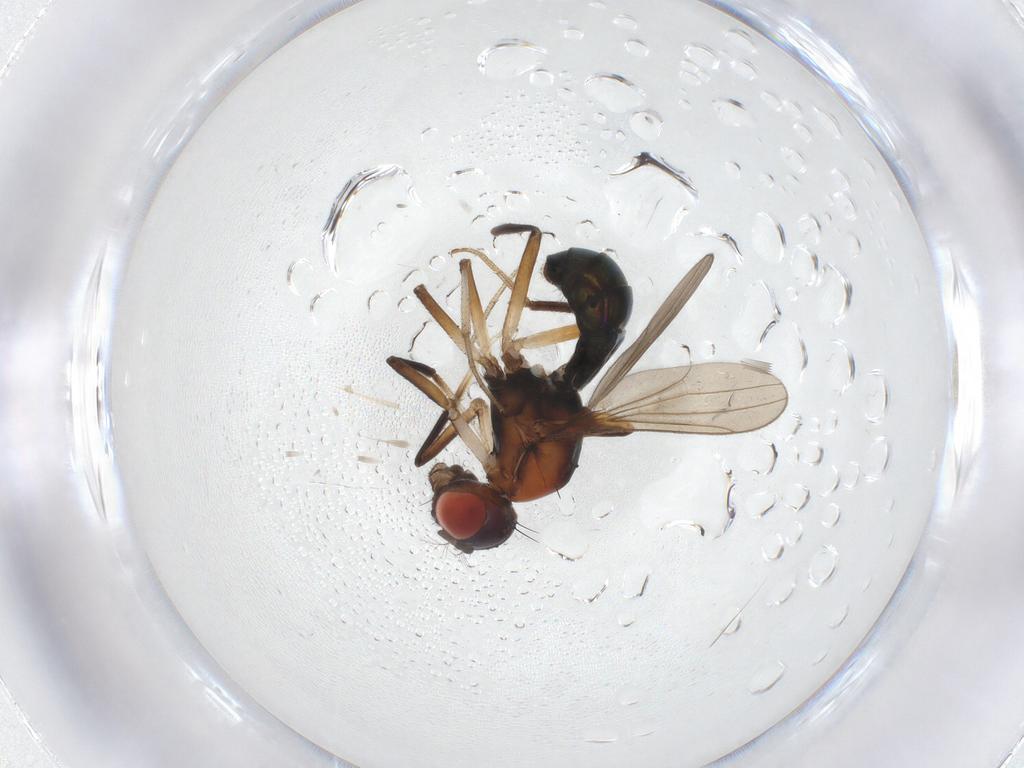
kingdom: Animalia
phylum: Arthropoda
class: Insecta
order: Diptera
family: Drosophilidae
